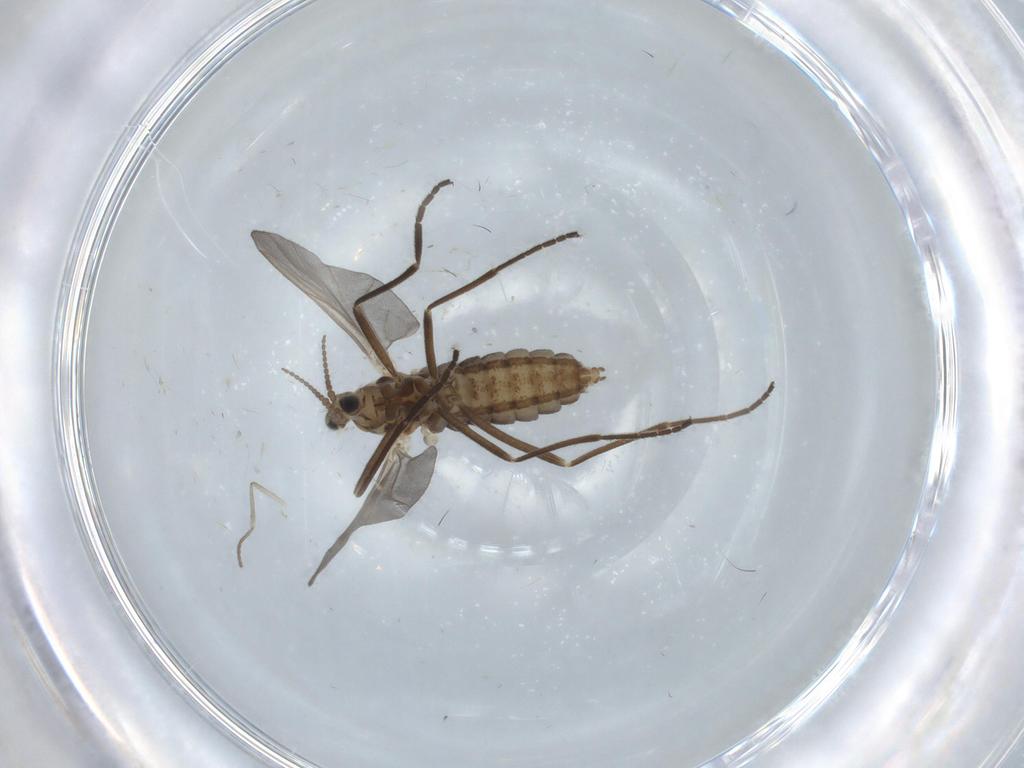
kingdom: Animalia
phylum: Arthropoda
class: Insecta
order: Diptera
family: Cecidomyiidae
